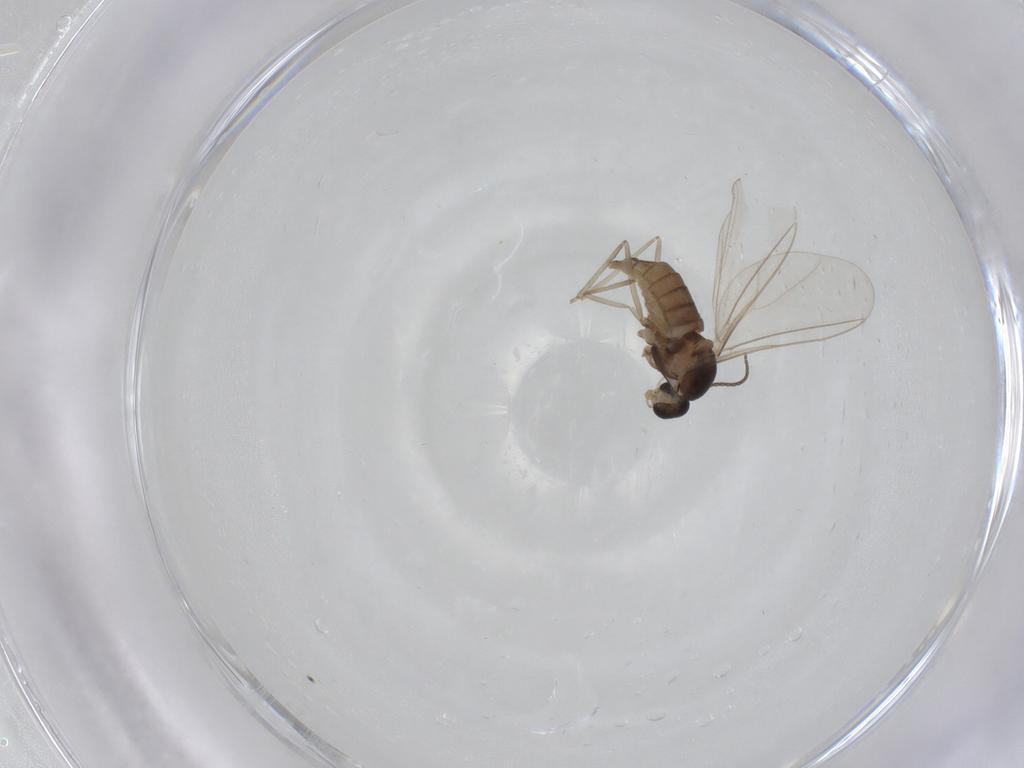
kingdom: Animalia
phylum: Arthropoda
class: Insecta
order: Diptera
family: Cecidomyiidae
